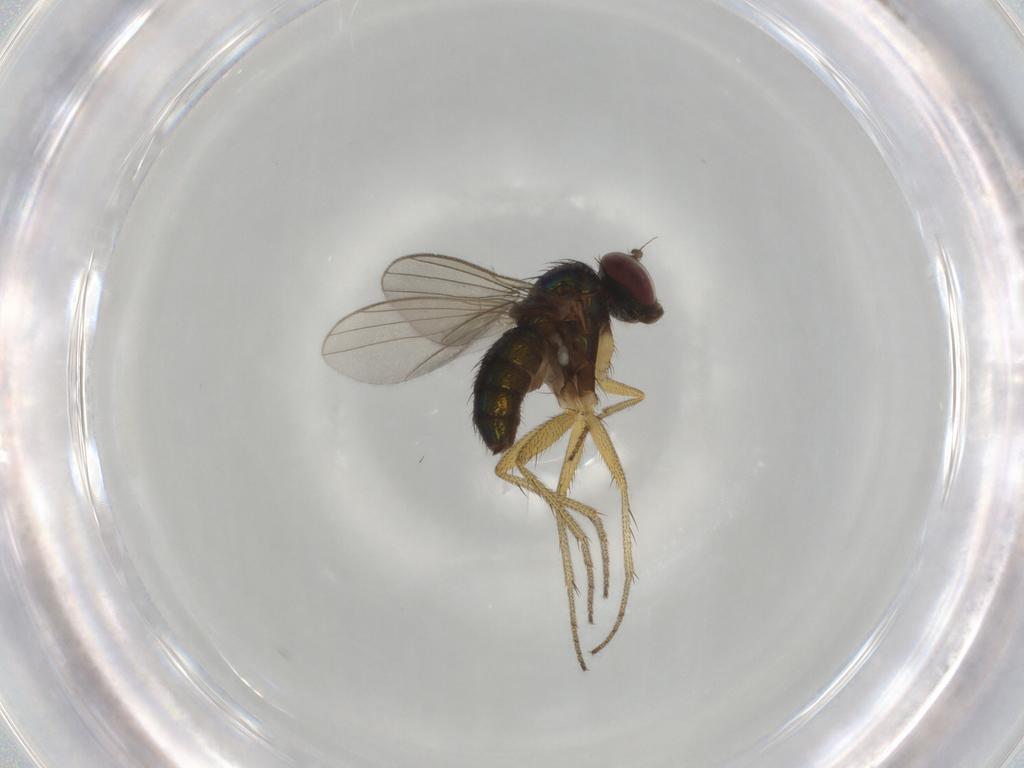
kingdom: Animalia
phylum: Arthropoda
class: Insecta
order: Diptera
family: Dolichopodidae
